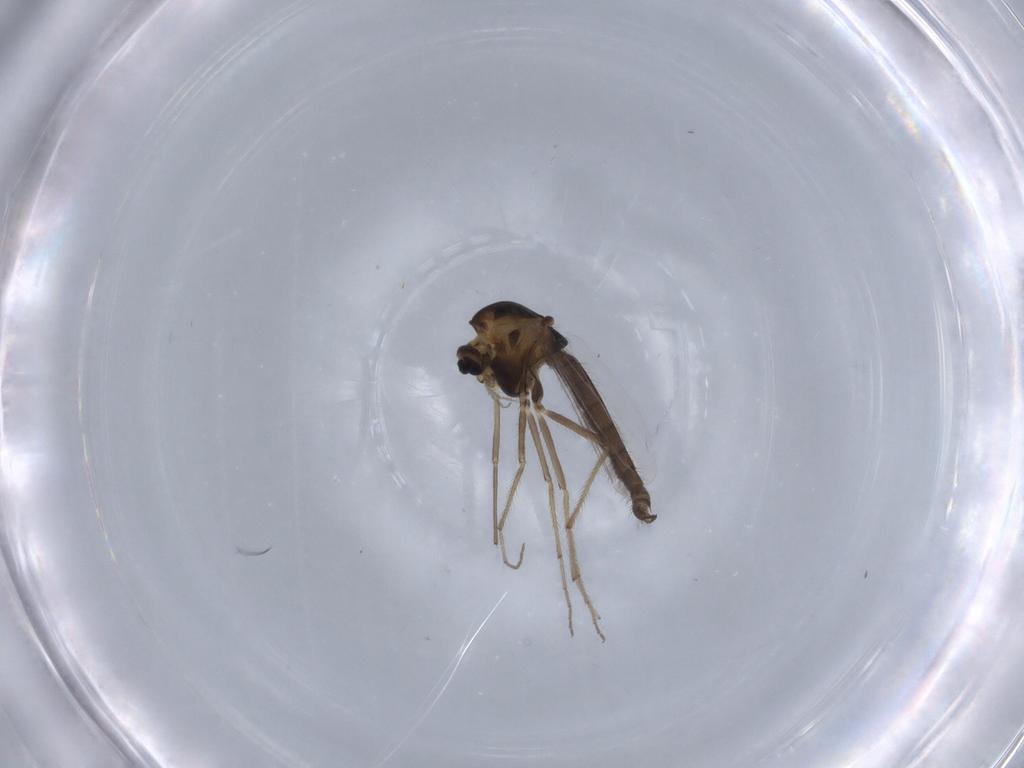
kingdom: Animalia
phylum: Arthropoda
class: Insecta
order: Diptera
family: Chironomidae
